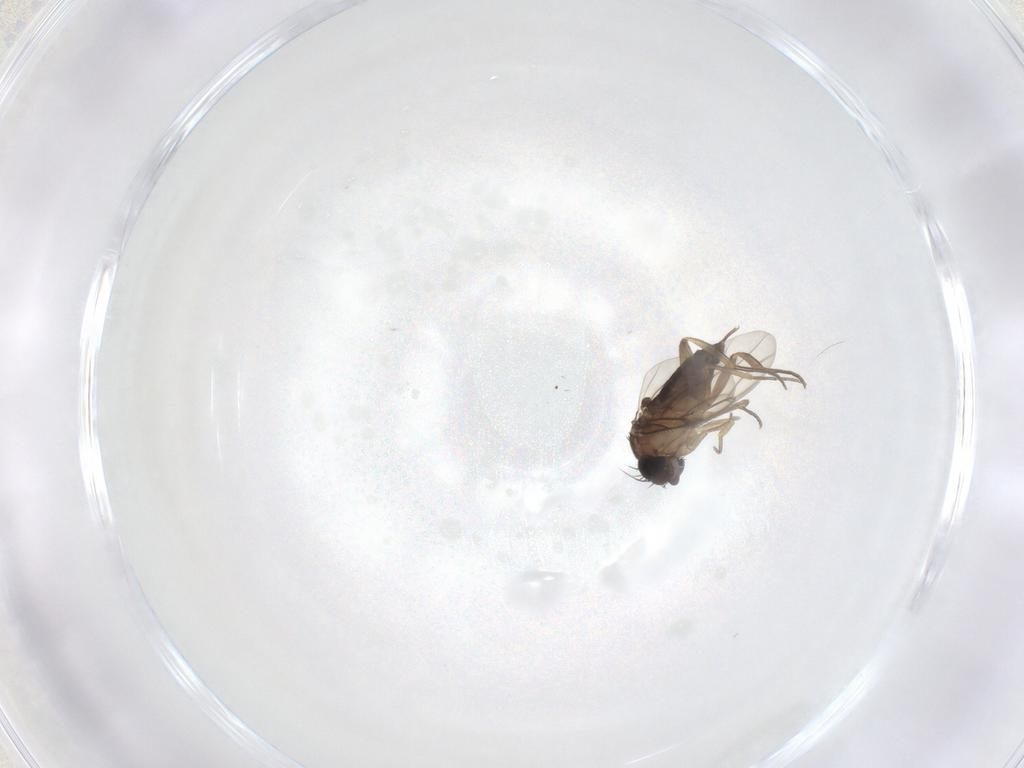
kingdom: Animalia
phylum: Arthropoda
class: Insecta
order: Diptera
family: Phoridae
